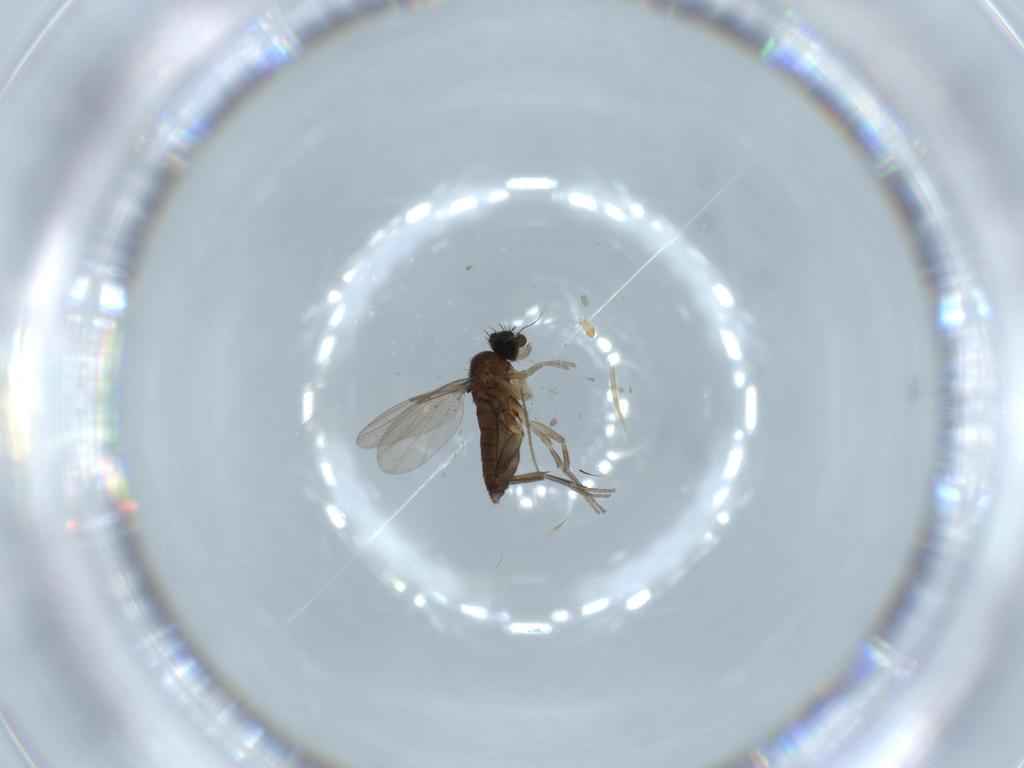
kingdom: Animalia
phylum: Arthropoda
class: Insecta
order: Diptera
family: Phoridae
